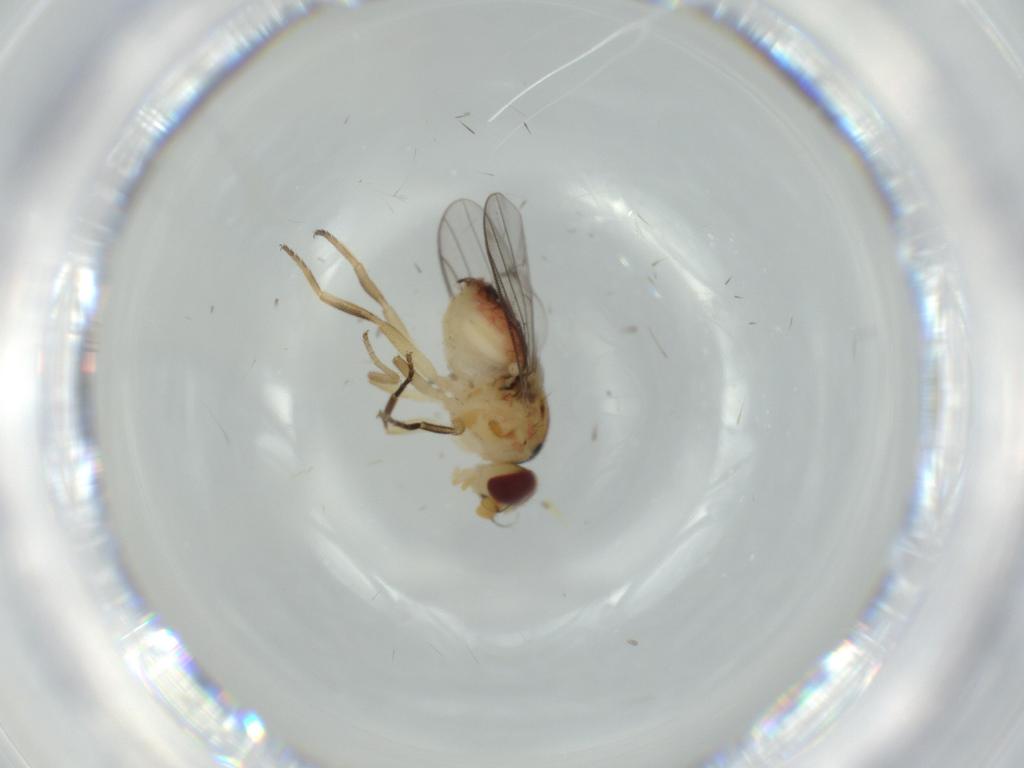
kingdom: Animalia
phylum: Arthropoda
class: Insecta
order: Diptera
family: Chloropidae
